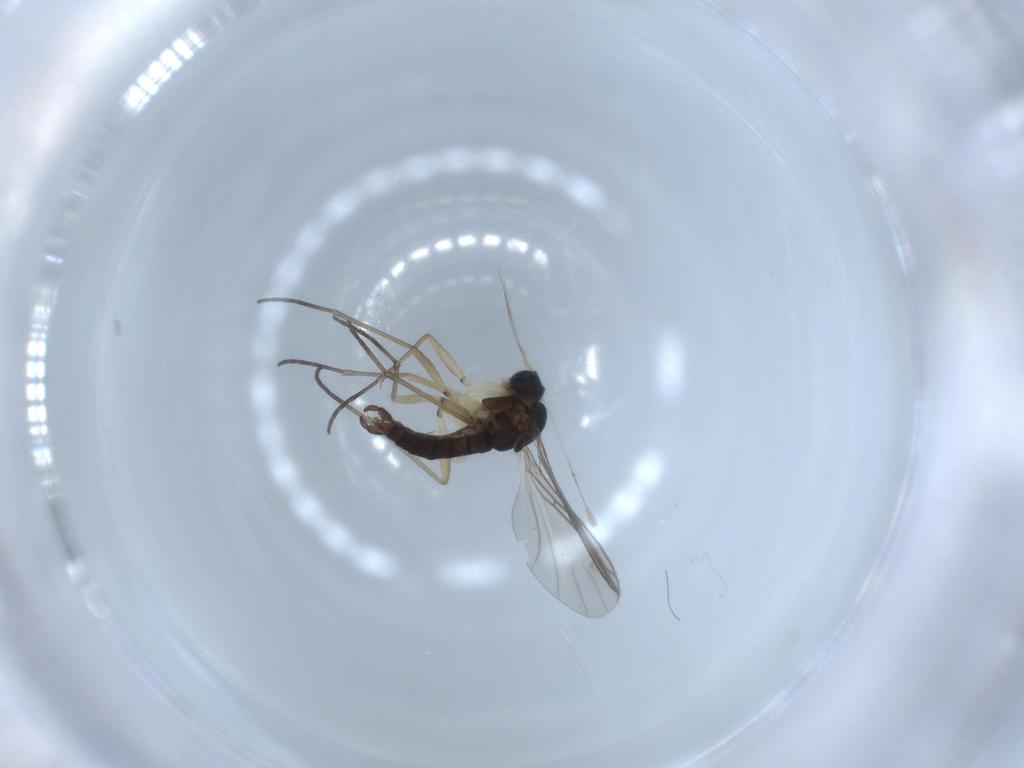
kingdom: Animalia
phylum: Arthropoda
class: Insecta
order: Diptera
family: Sciaridae
